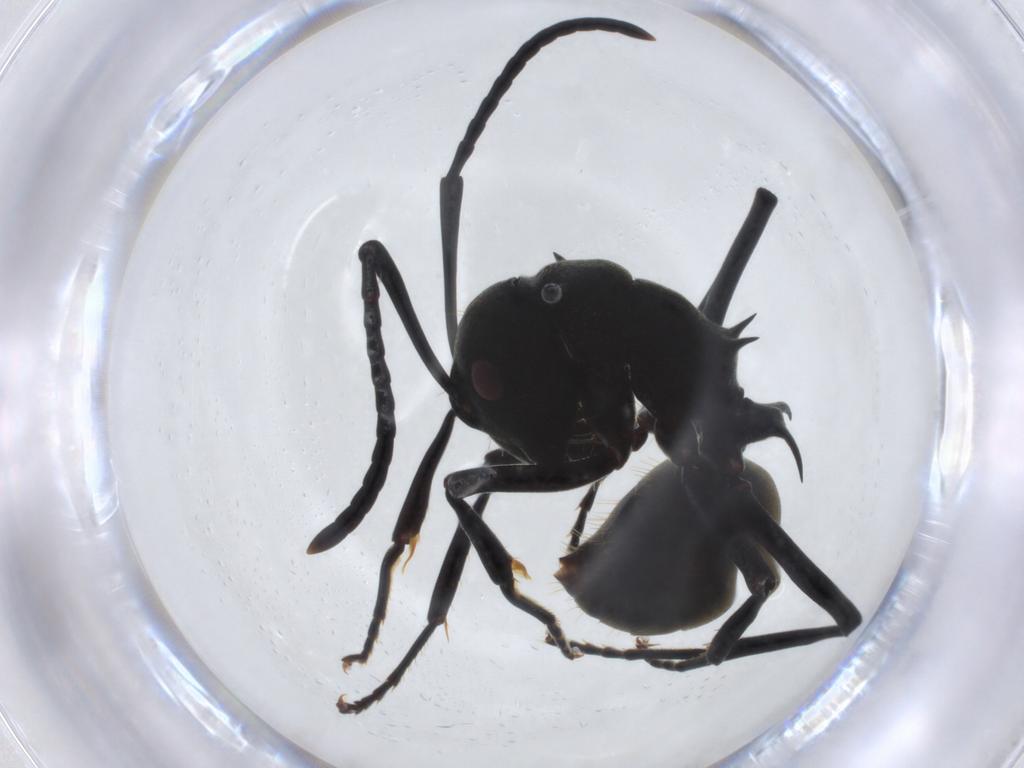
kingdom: Animalia
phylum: Arthropoda
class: Insecta
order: Hymenoptera
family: Formicidae
